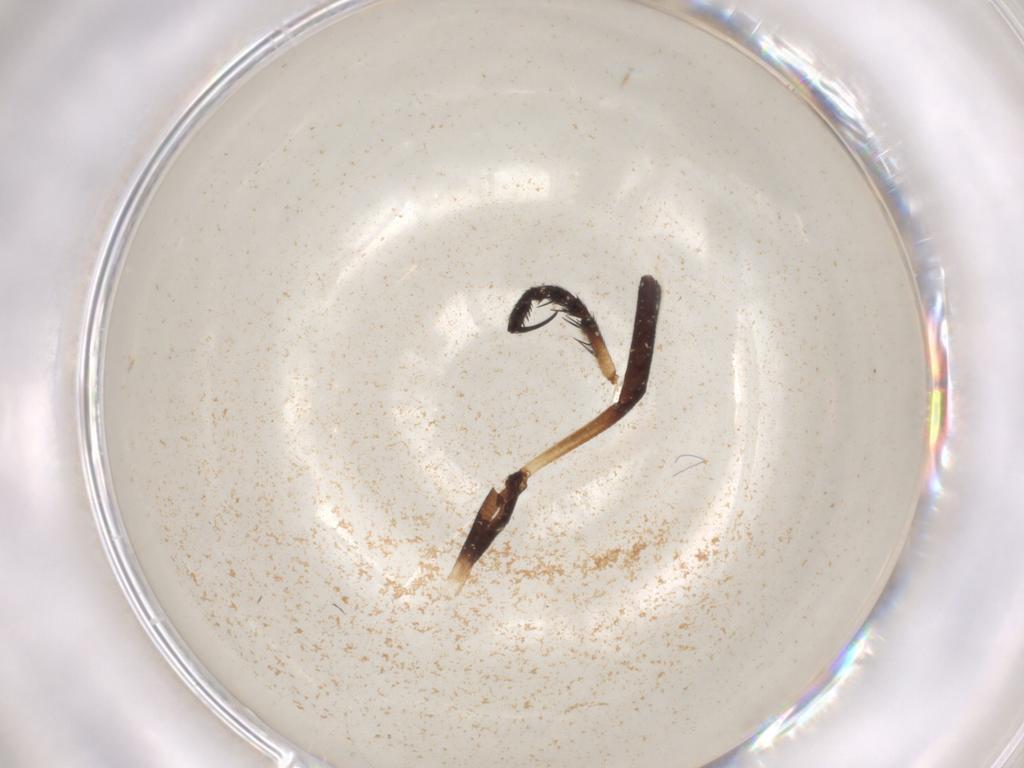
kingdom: Animalia
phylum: Arthropoda
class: Insecta
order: Diptera
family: Asilidae
